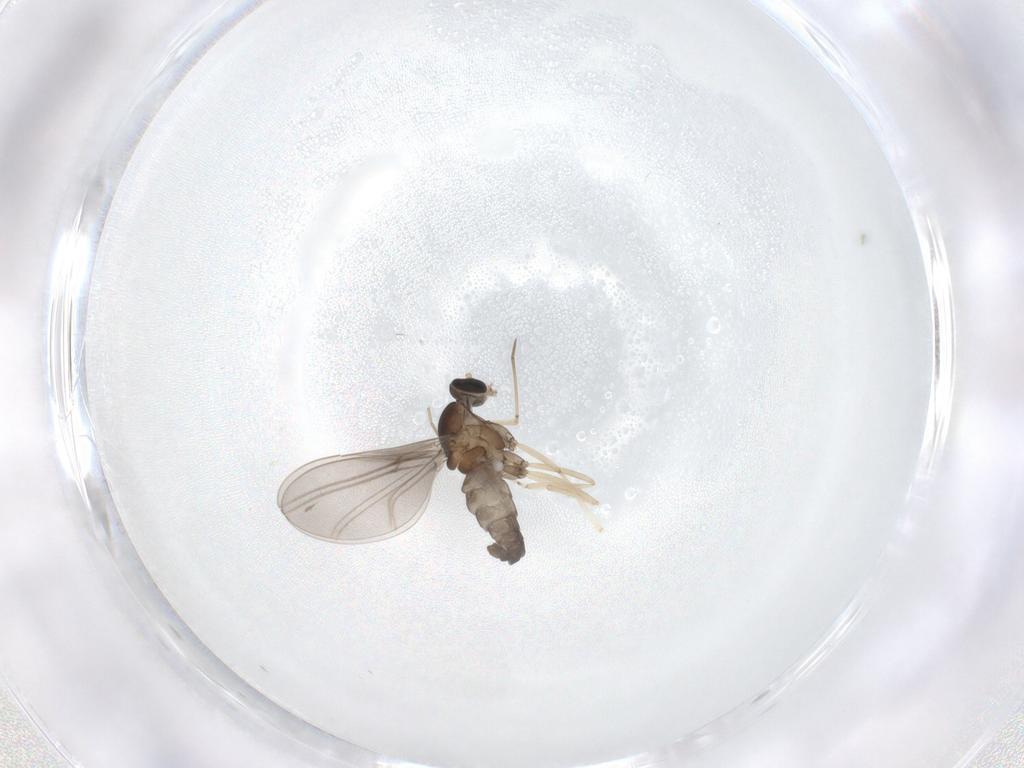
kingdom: Animalia
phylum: Arthropoda
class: Insecta
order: Diptera
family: Cecidomyiidae
